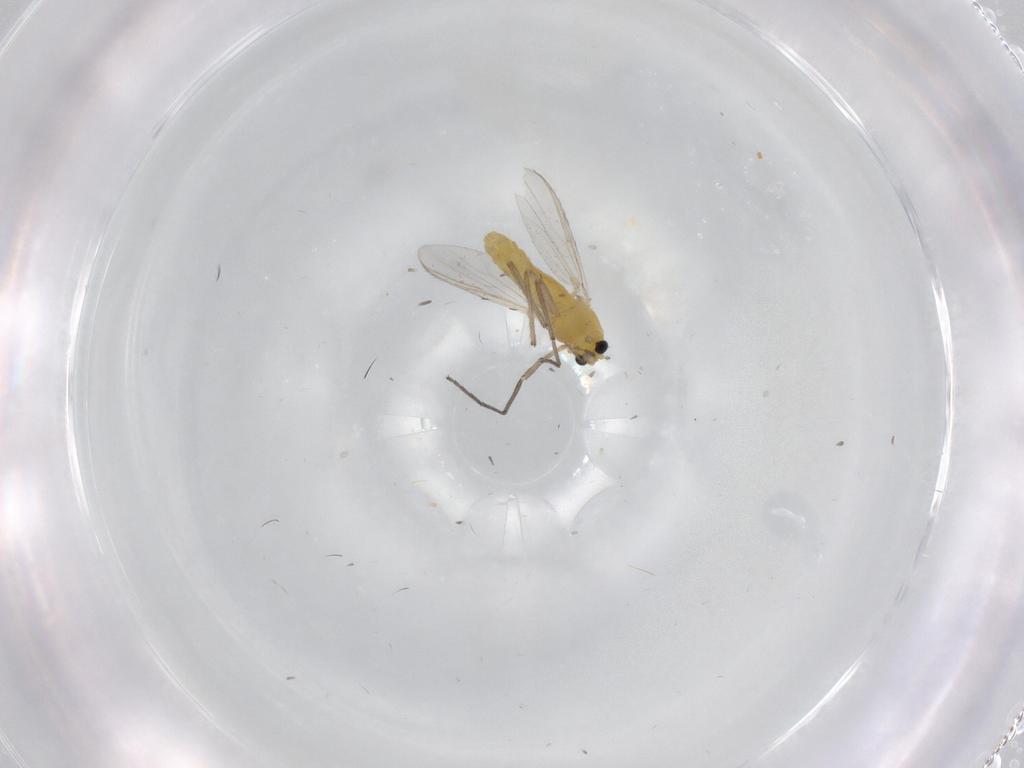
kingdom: Animalia
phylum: Arthropoda
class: Insecta
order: Diptera
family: Chironomidae
